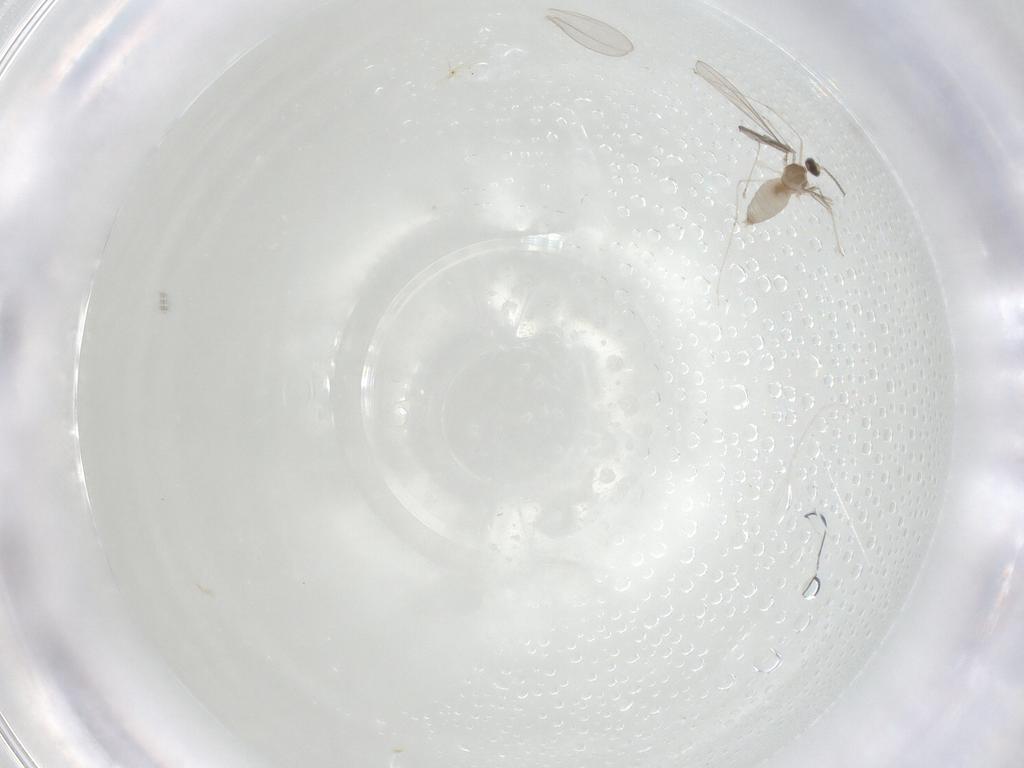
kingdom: Animalia
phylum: Arthropoda
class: Insecta
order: Diptera
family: Cecidomyiidae
